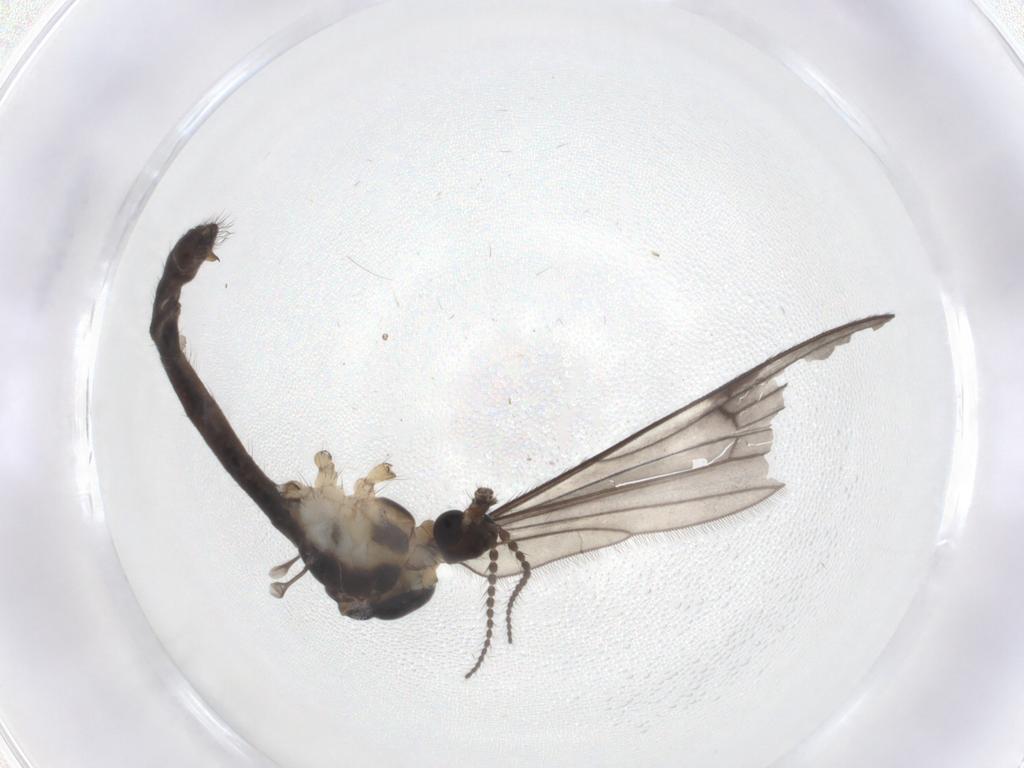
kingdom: Animalia
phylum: Arthropoda
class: Insecta
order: Diptera
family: Limoniidae
